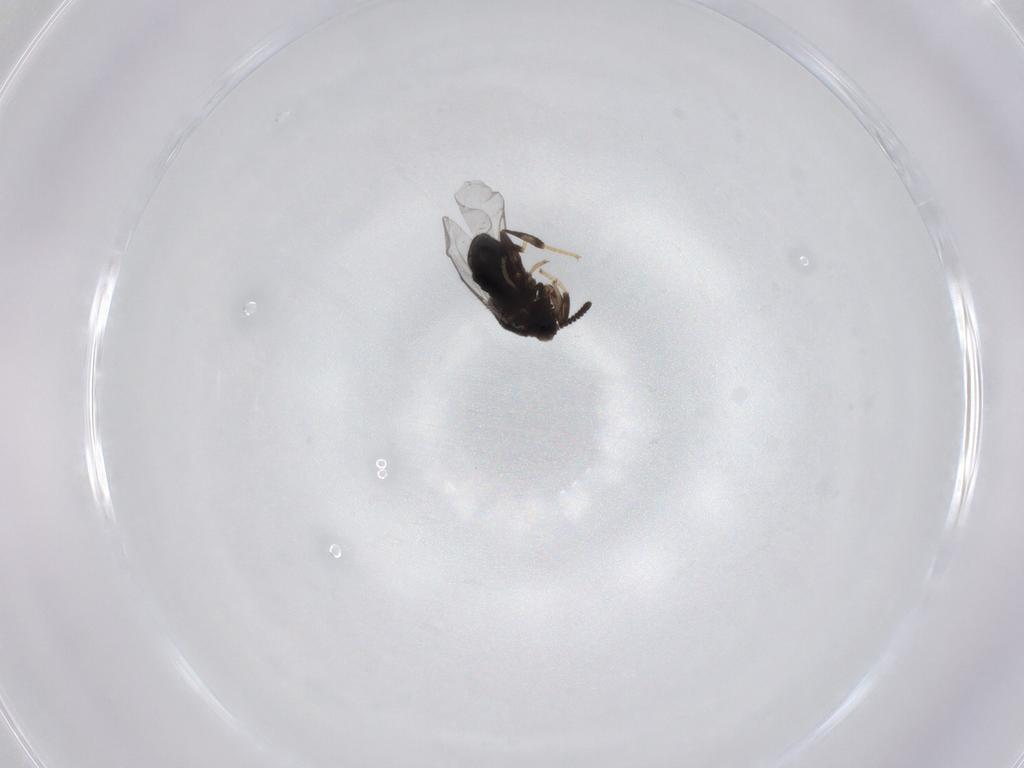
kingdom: Animalia
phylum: Arthropoda
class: Insecta
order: Diptera
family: Scatopsidae
